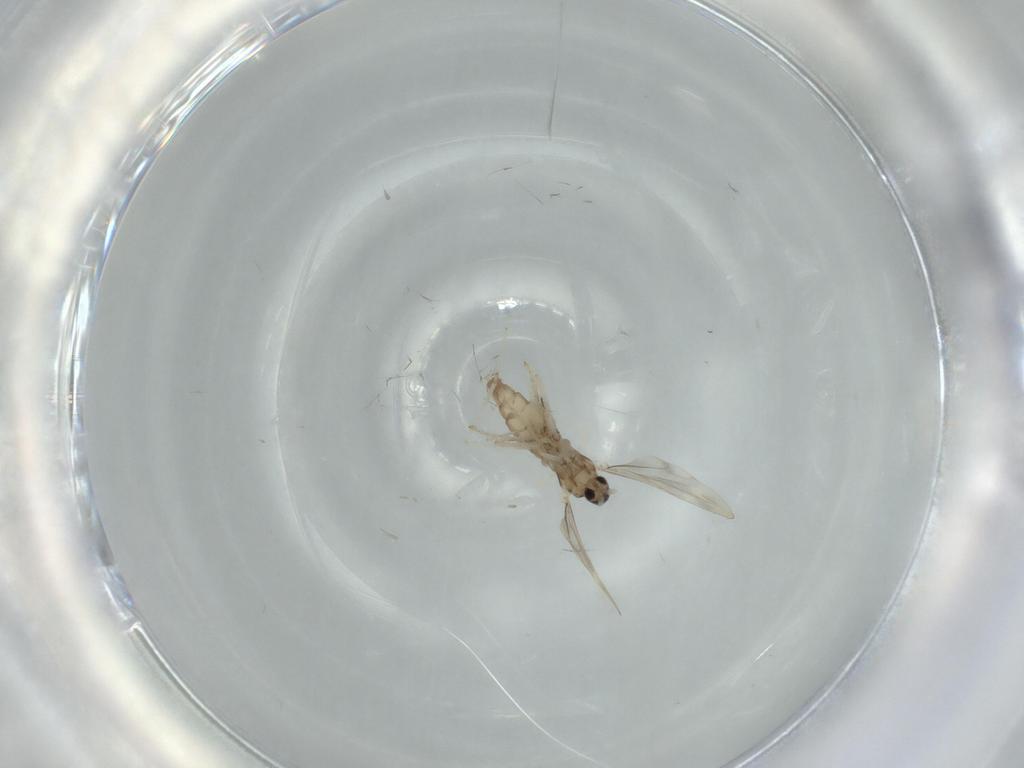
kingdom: Animalia
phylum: Arthropoda
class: Insecta
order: Diptera
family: Cecidomyiidae
